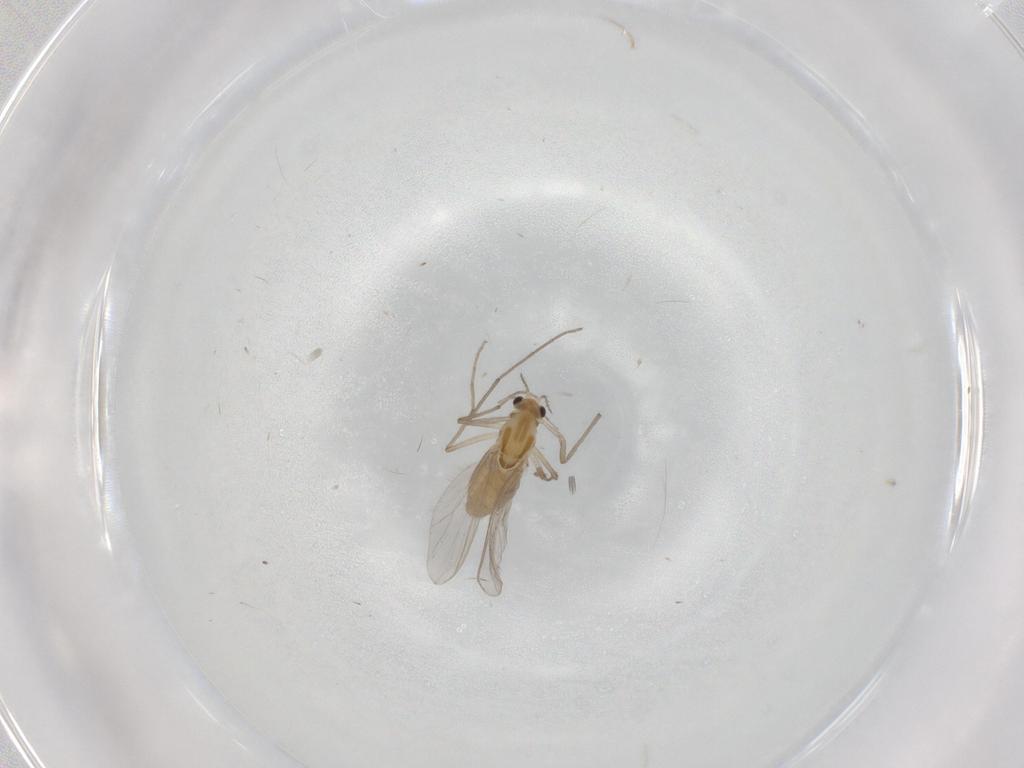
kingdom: Animalia
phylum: Arthropoda
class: Insecta
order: Diptera
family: Chironomidae
